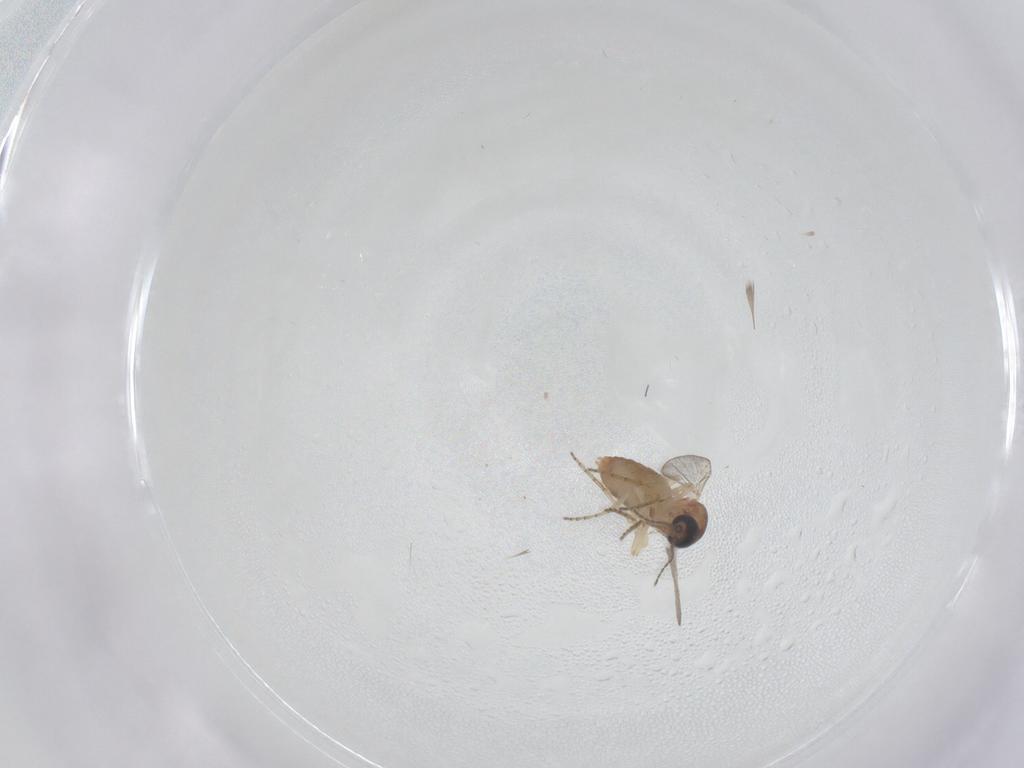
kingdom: Animalia
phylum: Arthropoda
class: Insecta
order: Diptera
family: Ceratopogonidae
